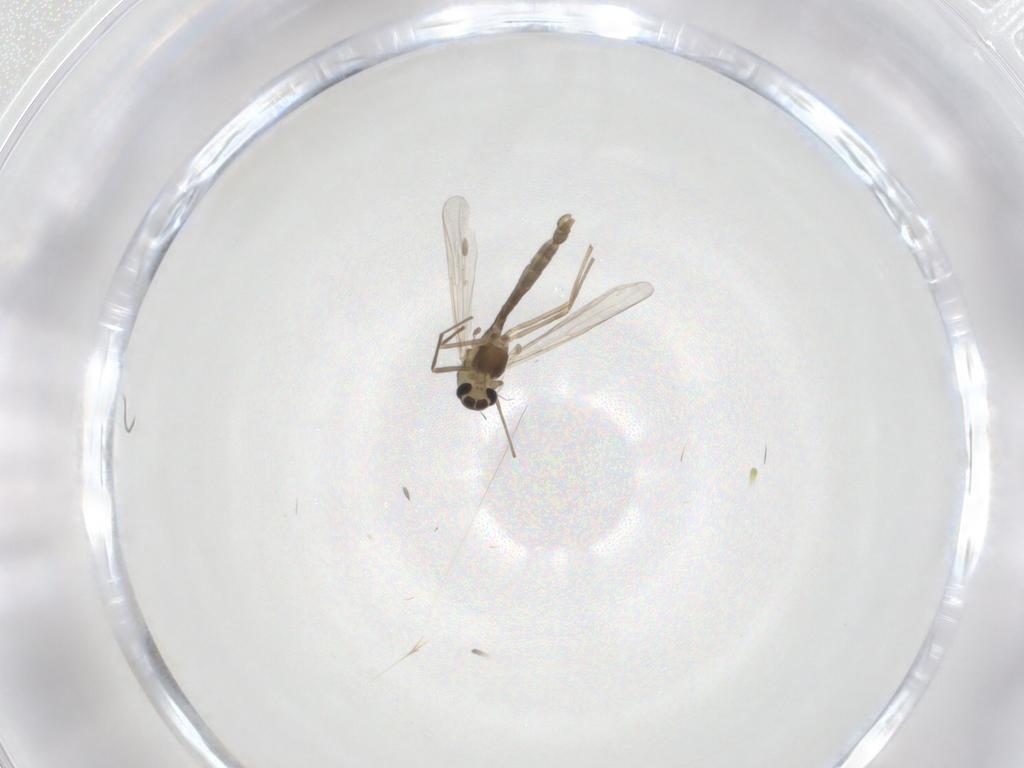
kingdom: Animalia
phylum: Arthropoda
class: Insecta
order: Diptera
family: Chironomidae
